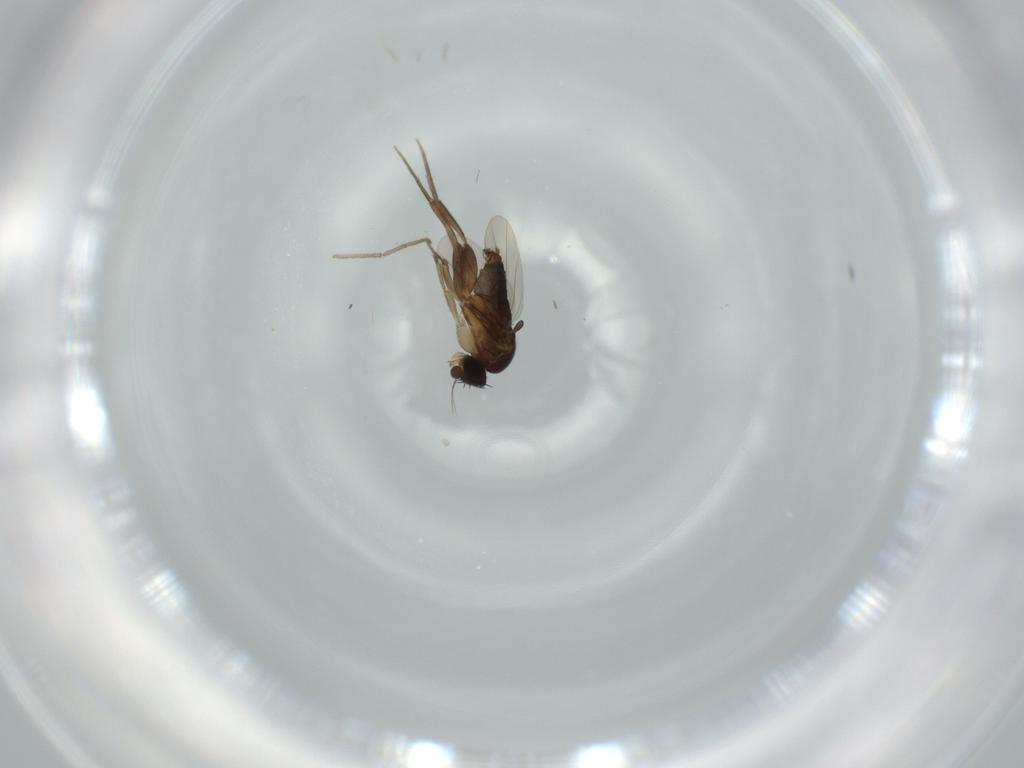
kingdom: Animalia
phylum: Arthropoda
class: Insecta
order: Diptera
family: Phoridae
